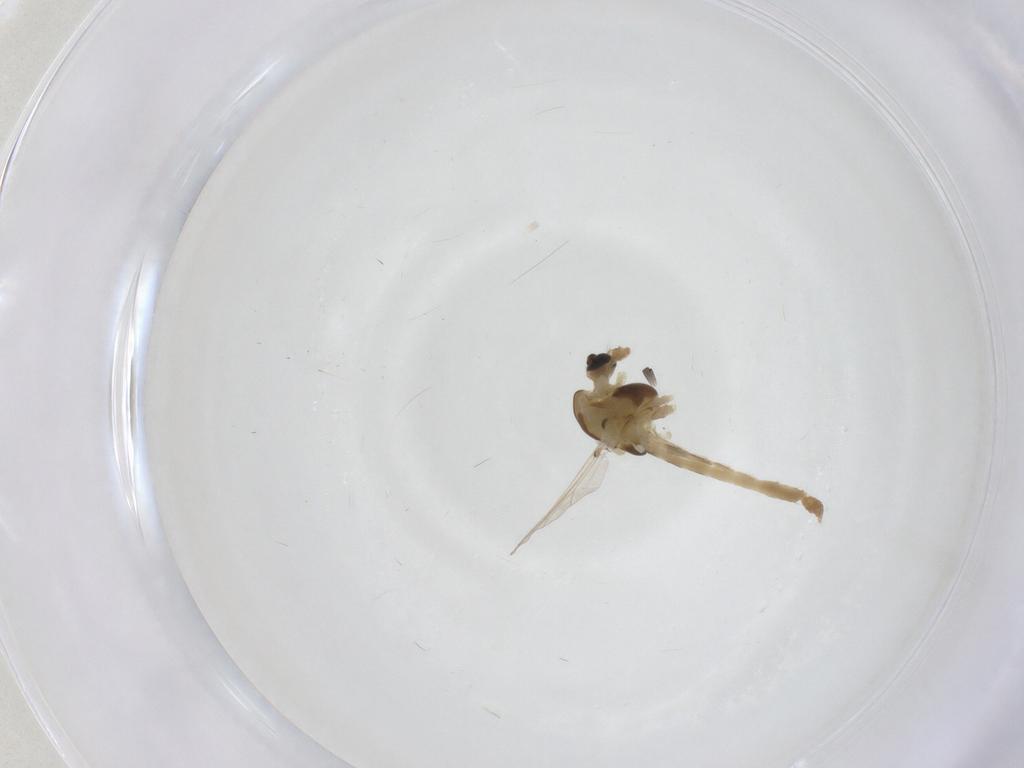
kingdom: Animalia
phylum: Arthropoda
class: Insecta
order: Diptera
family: Chironomidae
